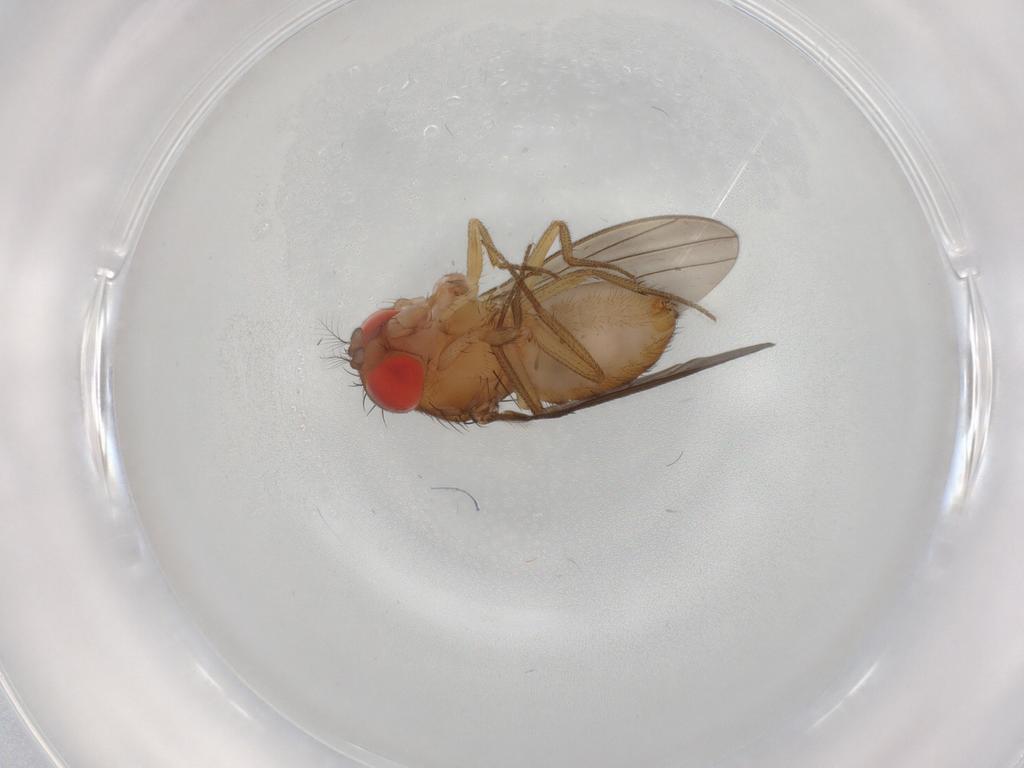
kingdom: Animalia
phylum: Arthropoda
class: Insecta
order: Diptera
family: Drosophilidae
